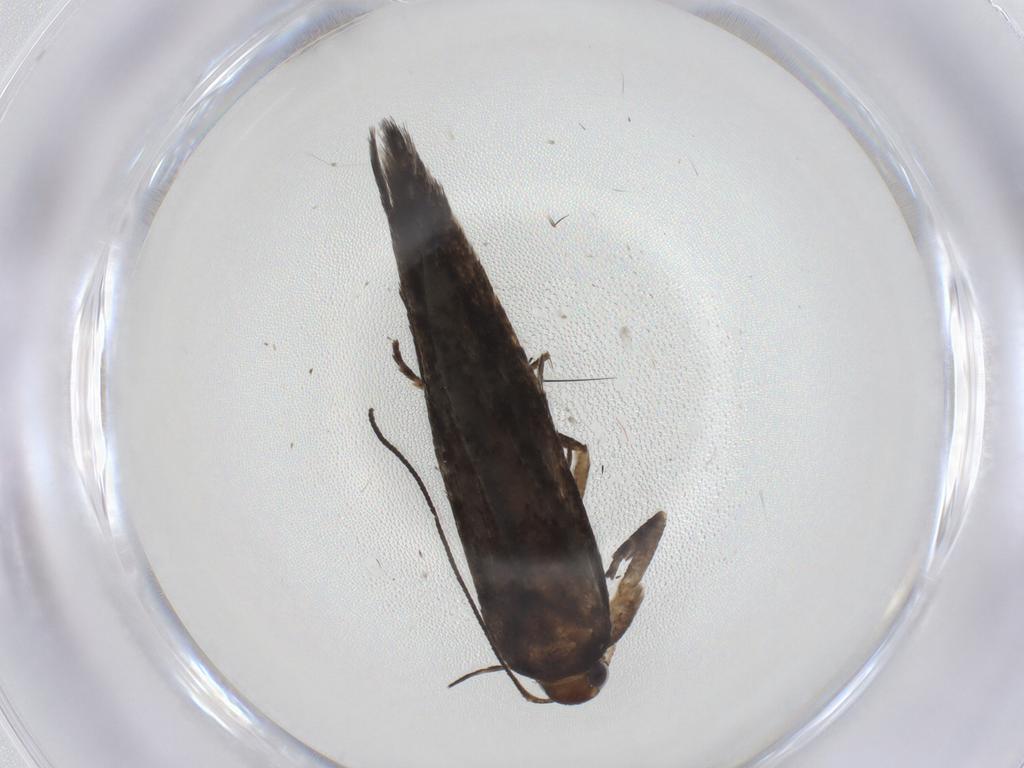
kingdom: Animalia
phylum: Arthropoda
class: Insecta
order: Lepidoptera
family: Gelechiidae
